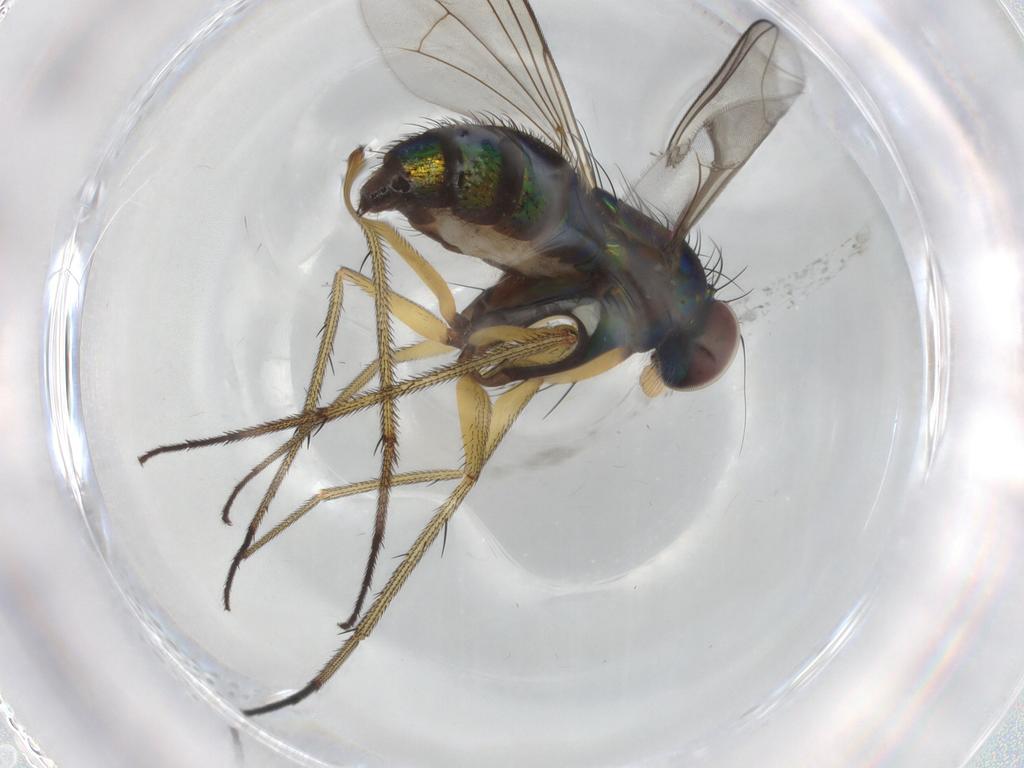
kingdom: Animalia
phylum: Arthropoda
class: Insecta
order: Diptera
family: Dolichopodidae
